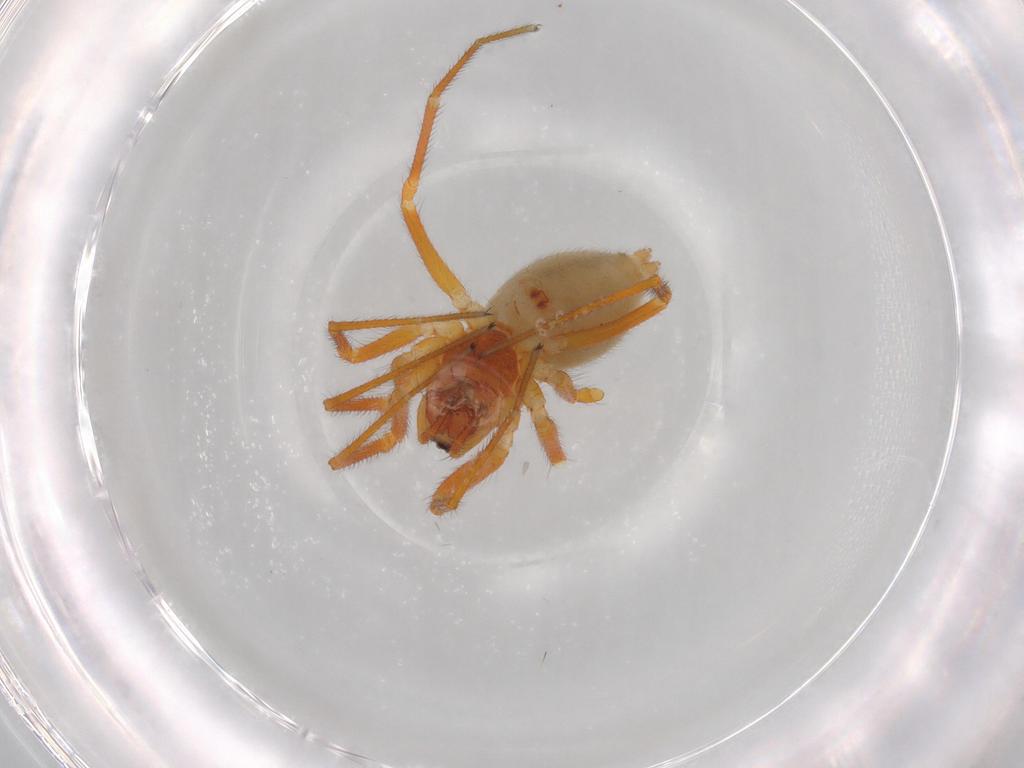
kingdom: Animalia
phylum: Arthropoda
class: Arachnida
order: Araneae
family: Linyphiidae
